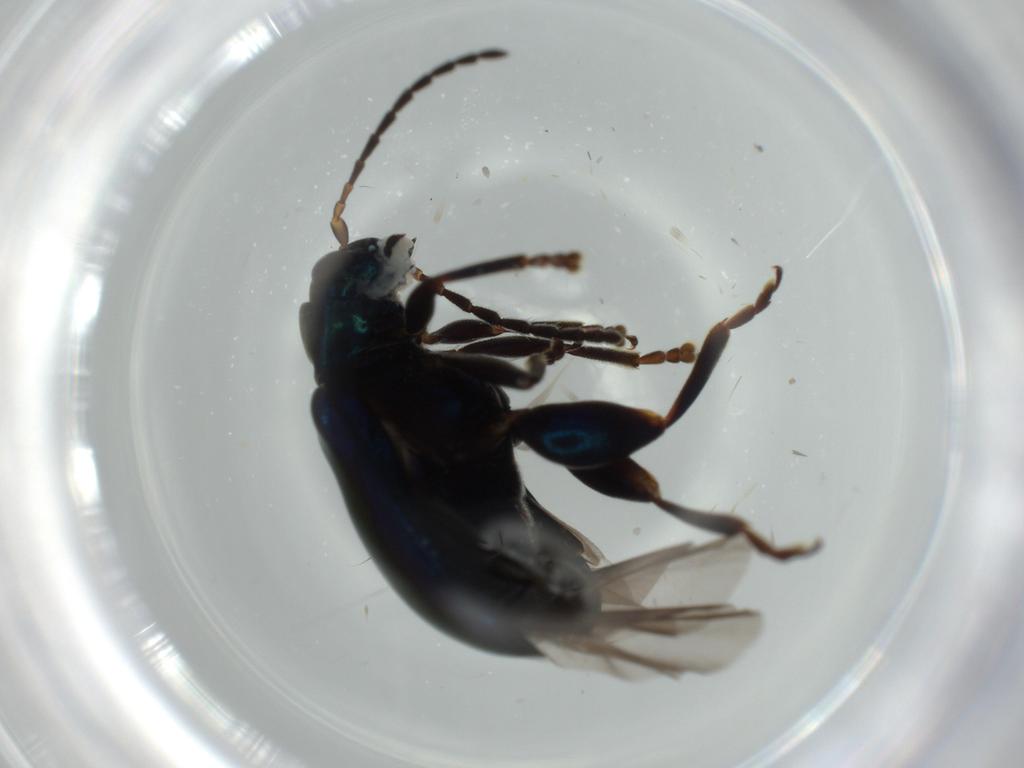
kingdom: Animalia
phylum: Arthropoda
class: Insecta
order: Coleoptera
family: Chrysomelidae
